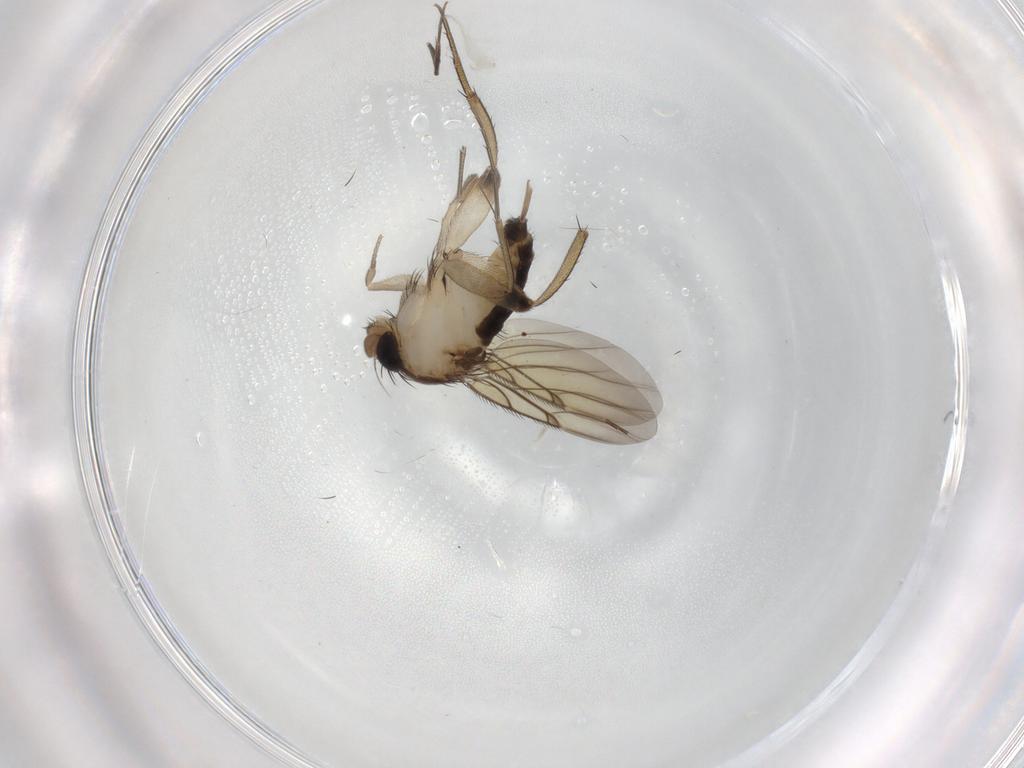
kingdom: Animalia
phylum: Arthropoda
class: Insecta
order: Diptera
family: Phoridae
